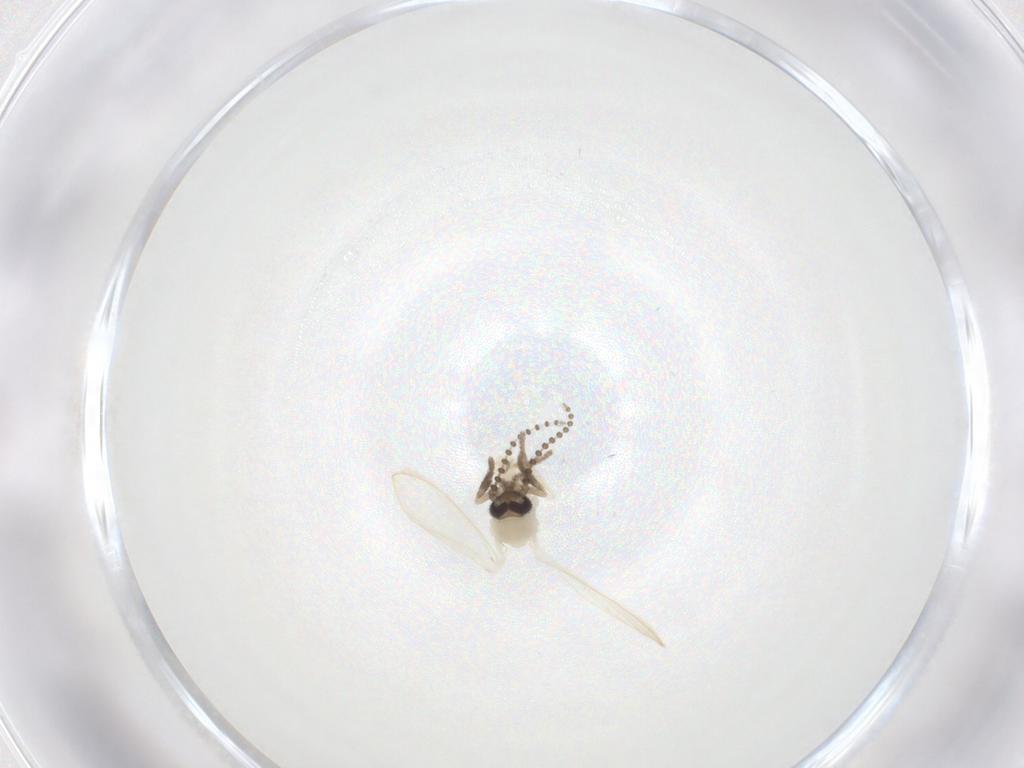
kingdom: Animalia
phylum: Arthropoda
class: Insecta
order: Diptera
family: Psychodidae
